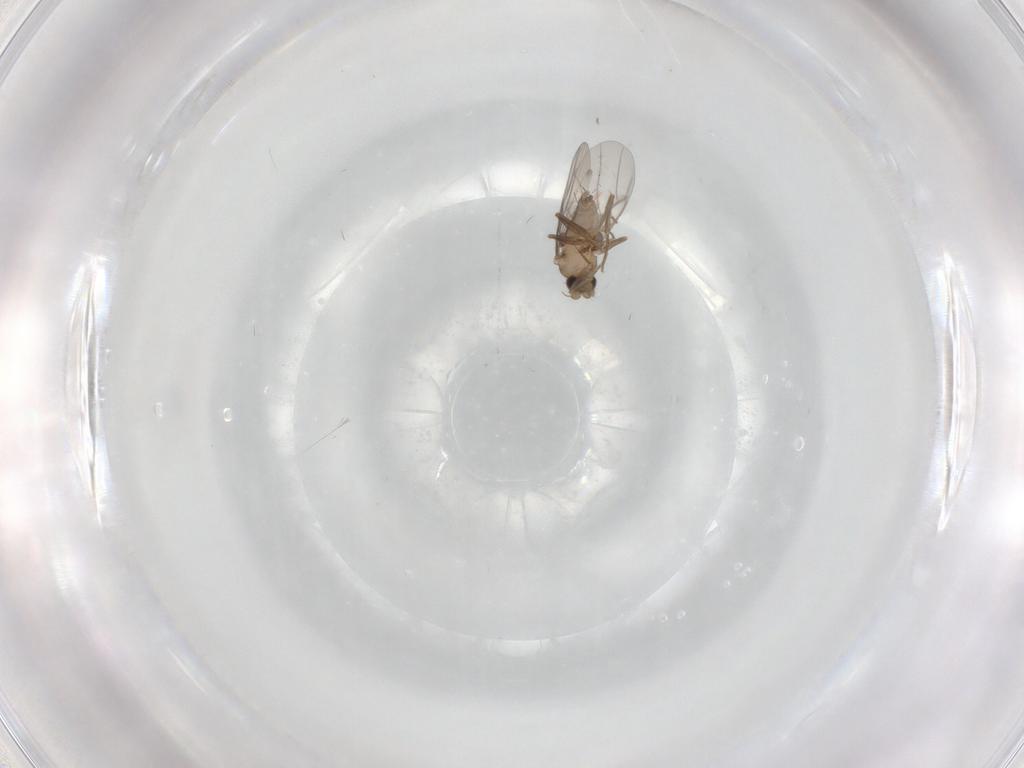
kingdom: Animalia
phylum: Arthropoda
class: Insecta
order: Diptera
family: Limoniidae
